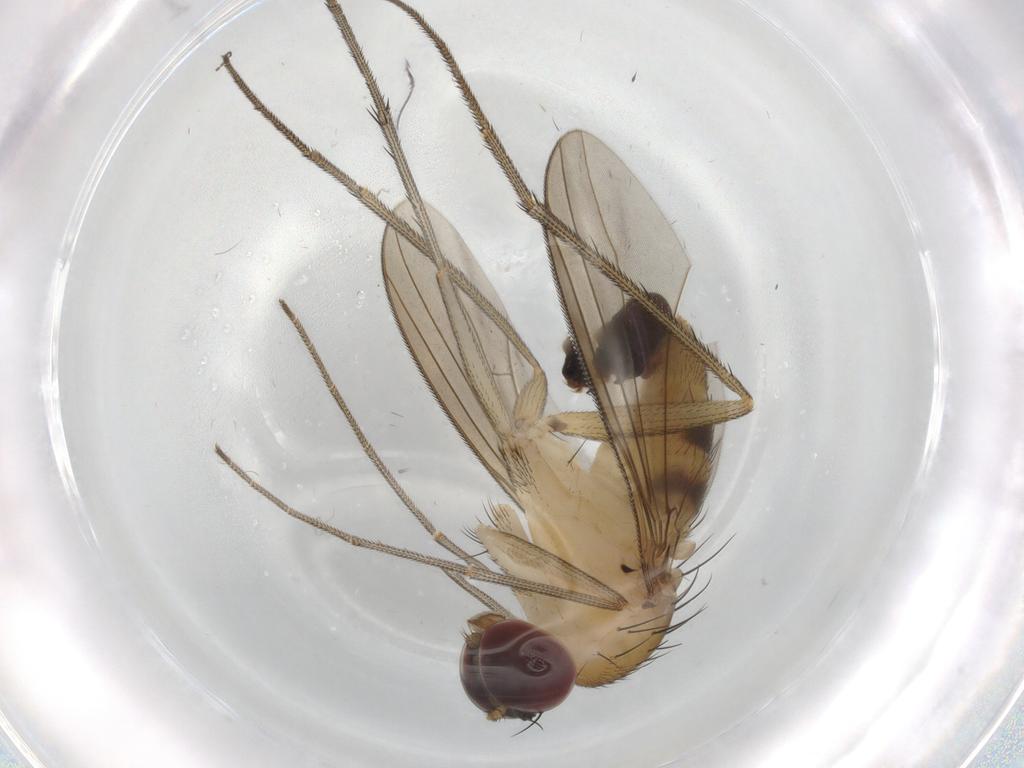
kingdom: Animalia
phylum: Arthropoda
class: Insecta
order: Diptera
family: Dolichopodidae
